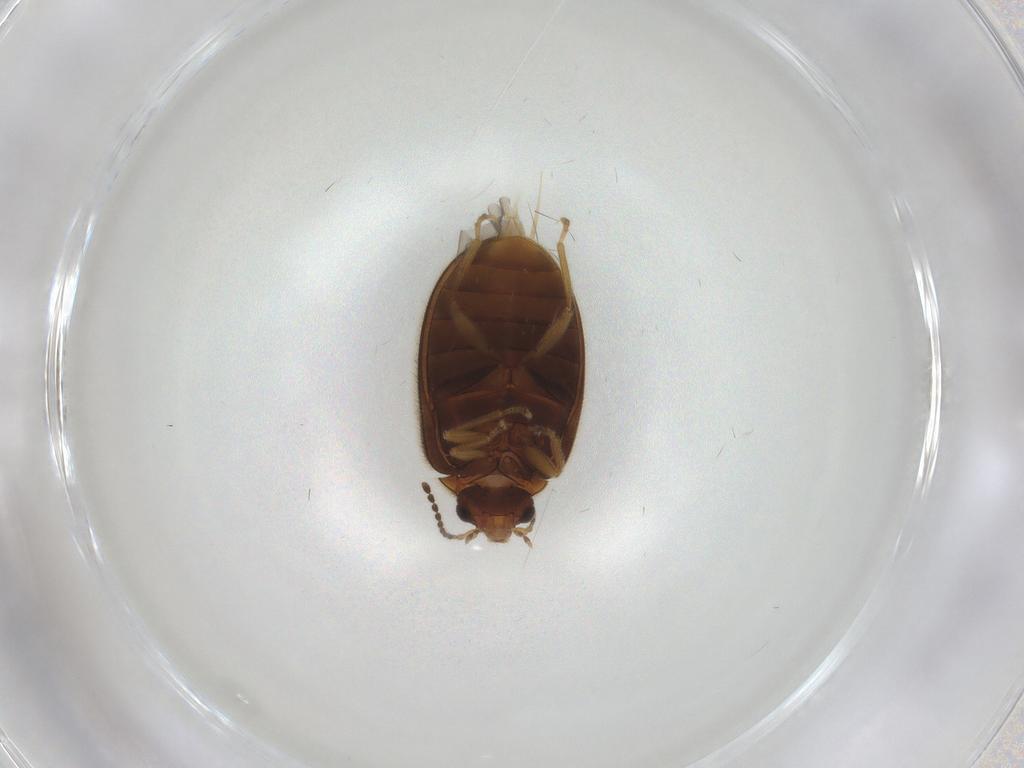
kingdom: Animalia
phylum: Arthropoda
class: Insecta
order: Coleoptera
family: Scirtidae
